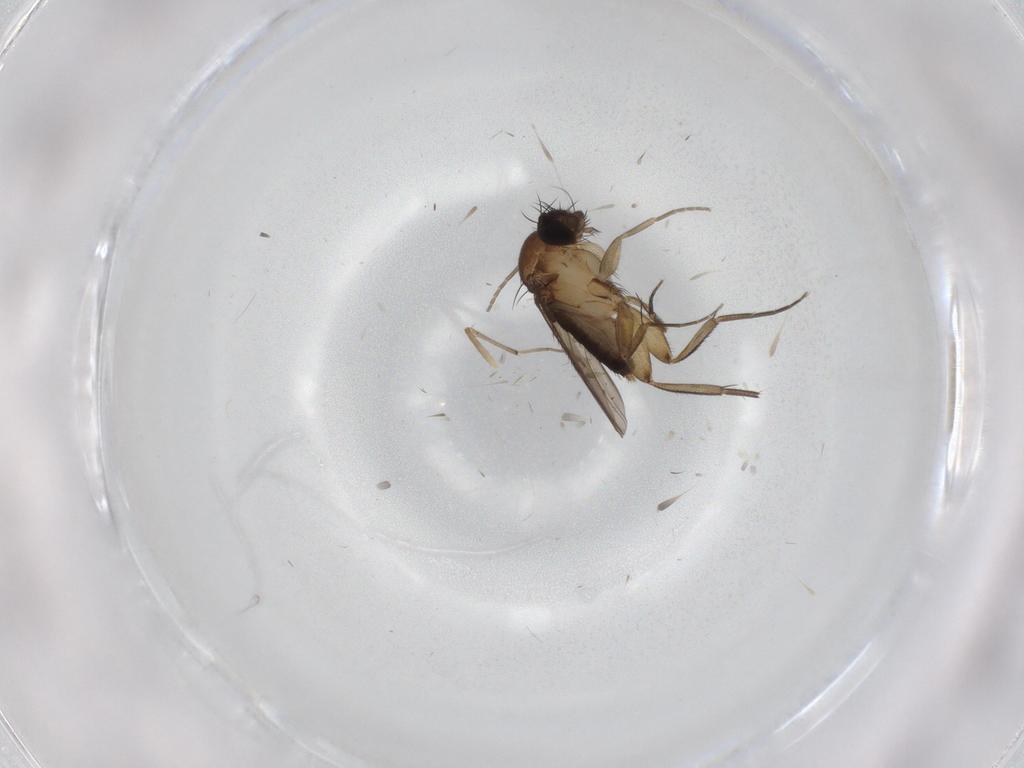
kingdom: Animalia
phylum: Arthropoda
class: Insecta
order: Diptera
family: Phoridae
